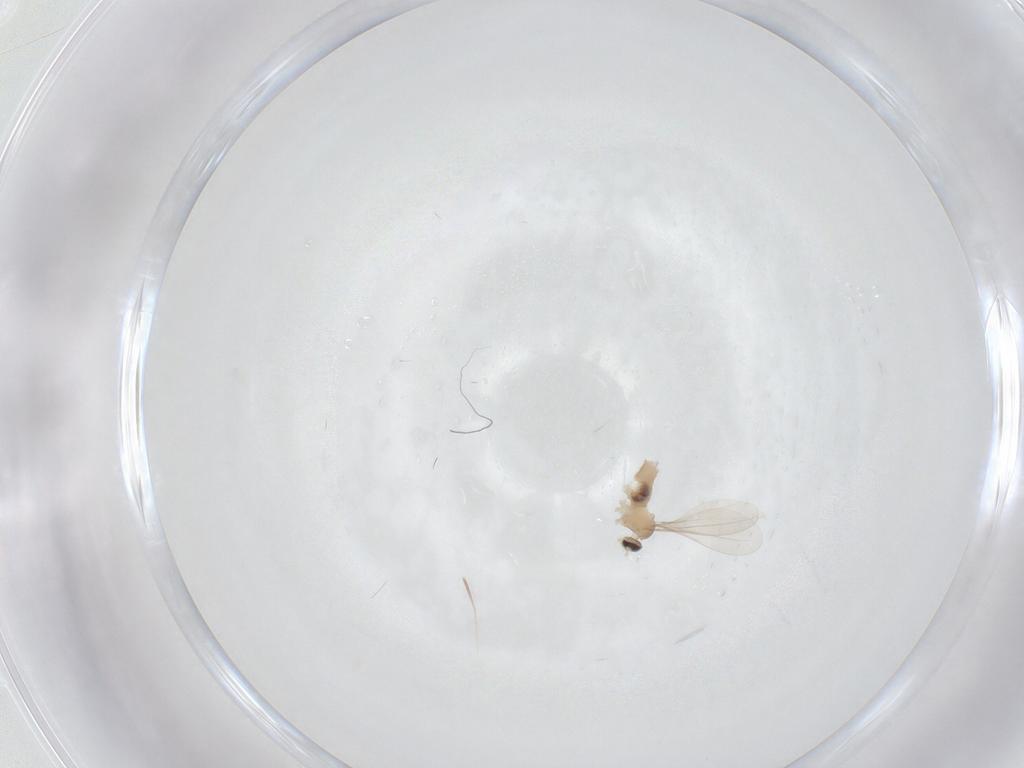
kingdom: Animalia
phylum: Arthropoda
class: Insecta
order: Diptera
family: Cecidomyiidae
